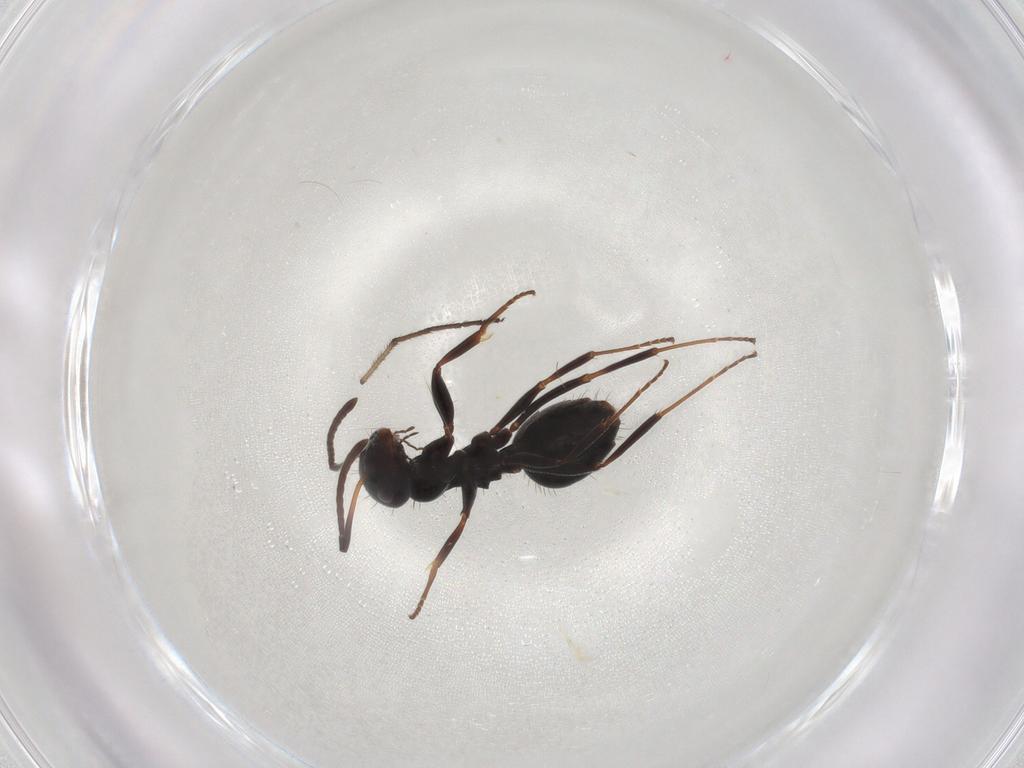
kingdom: Animalia
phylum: Arthropoda
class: Insecta
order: Hymenoptera
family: Formicidae
